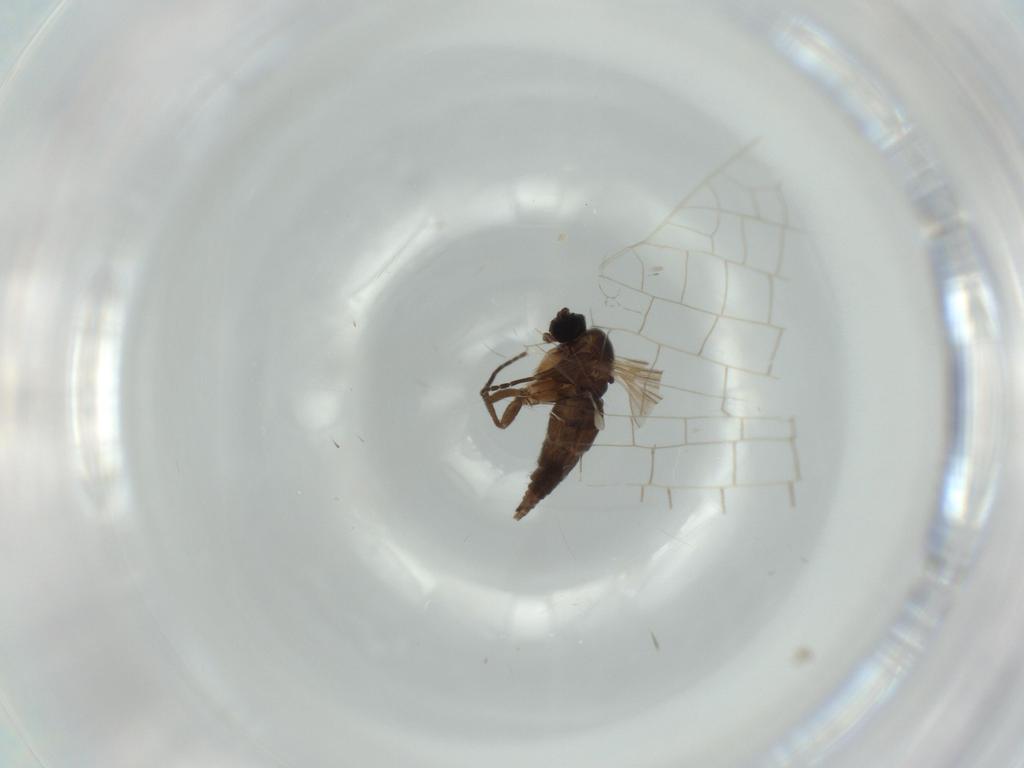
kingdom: Animalia
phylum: Arthropoda
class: Insecta
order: Diptera
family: Sciaridae
